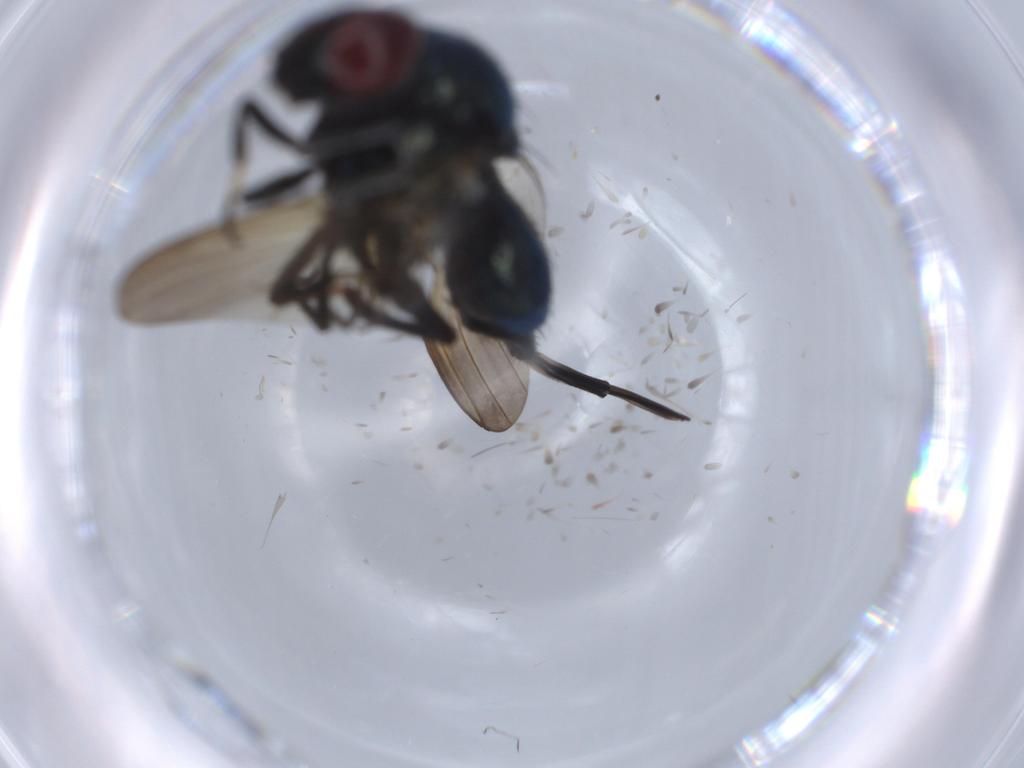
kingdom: Animalia
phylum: Arthropoda
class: Insecta
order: Diptera
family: Lonchaeidae
